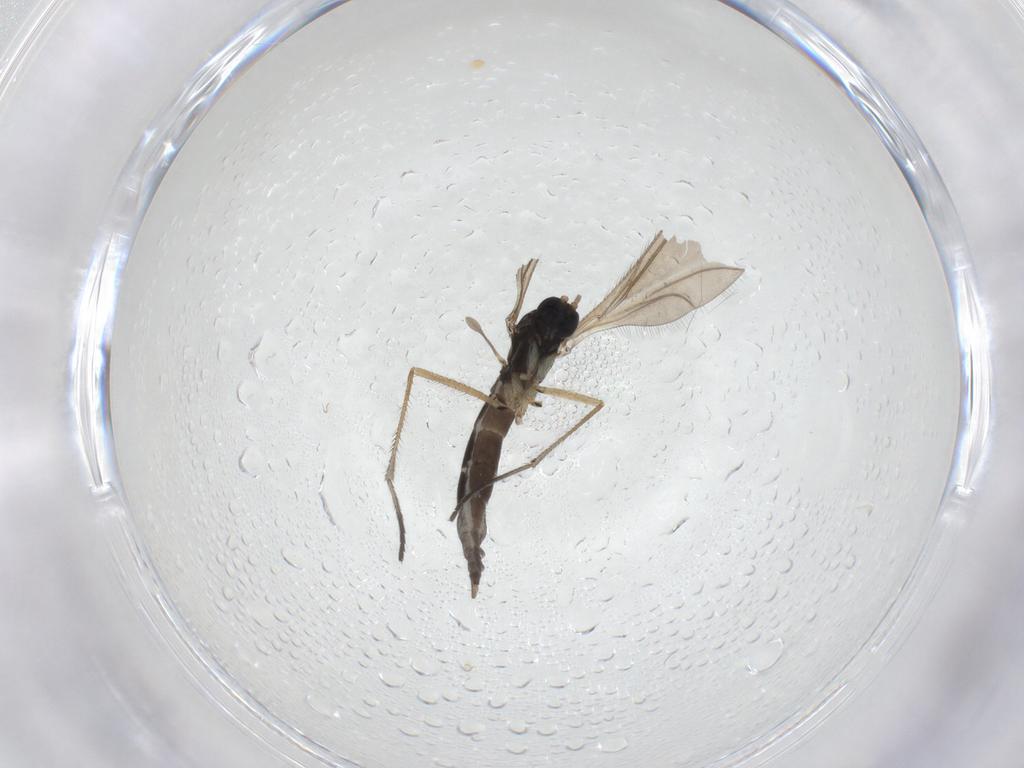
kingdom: Animalia
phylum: Arthropoda
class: Insecta
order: Diptera
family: Sciaridae
